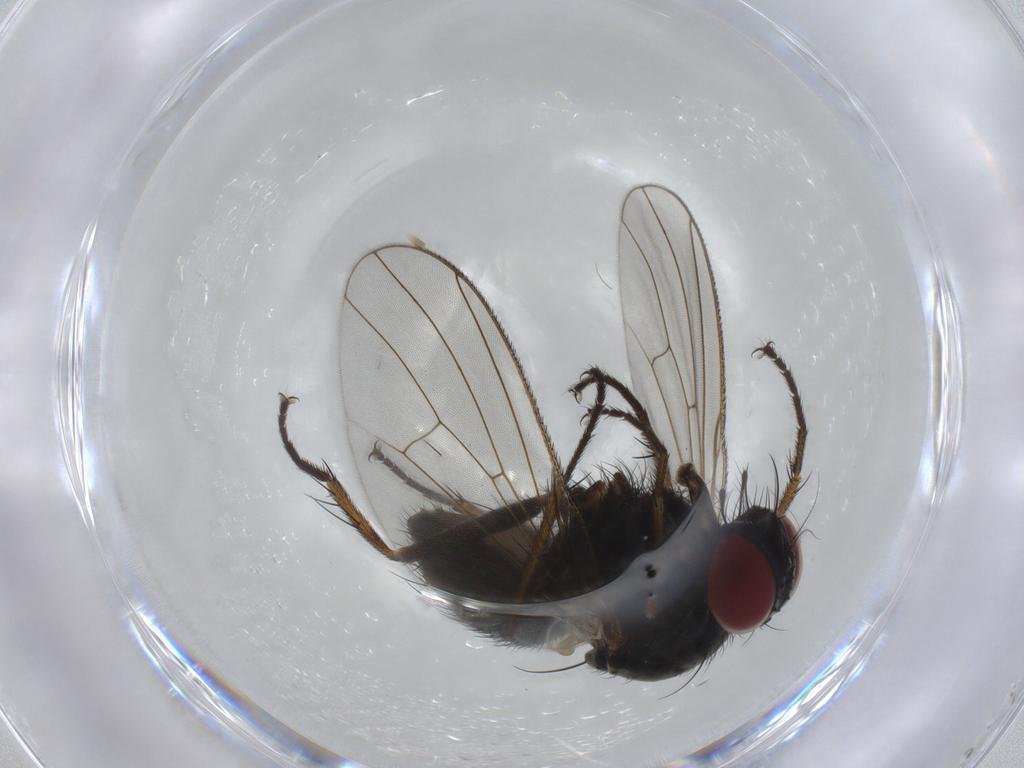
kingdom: Animalia
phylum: Arthropoda
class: Insecta
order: Diptera
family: Muscidae
